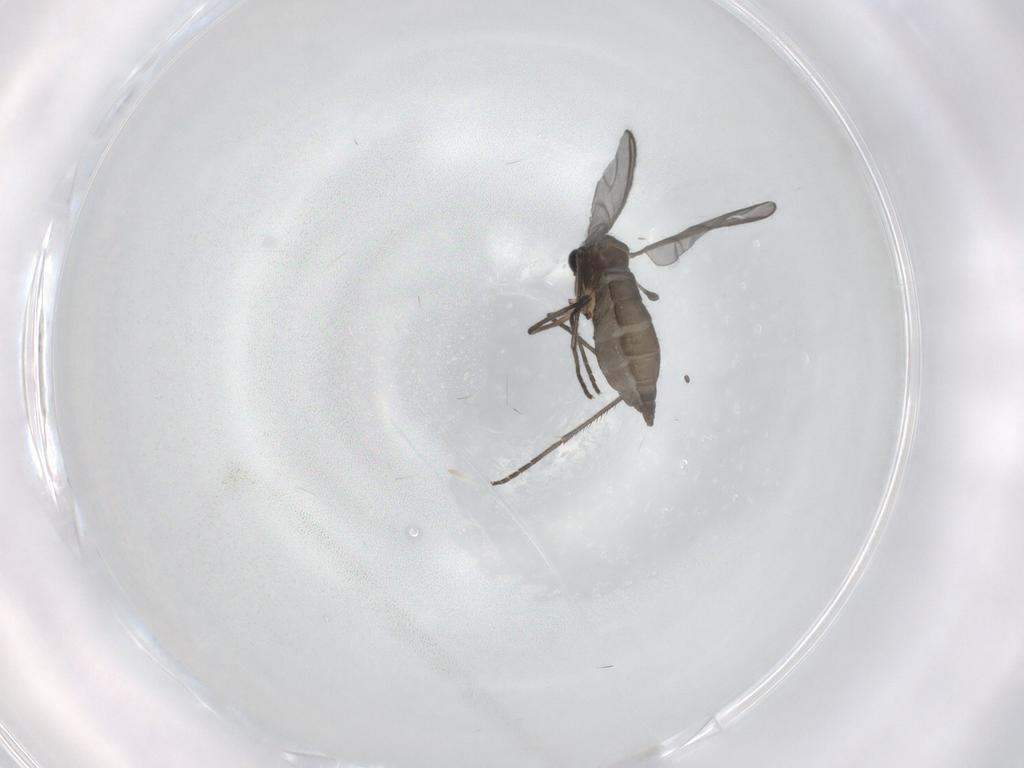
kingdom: Animalia
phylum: Arthropoda
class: Insecta
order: Diptera
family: Sciaridae
